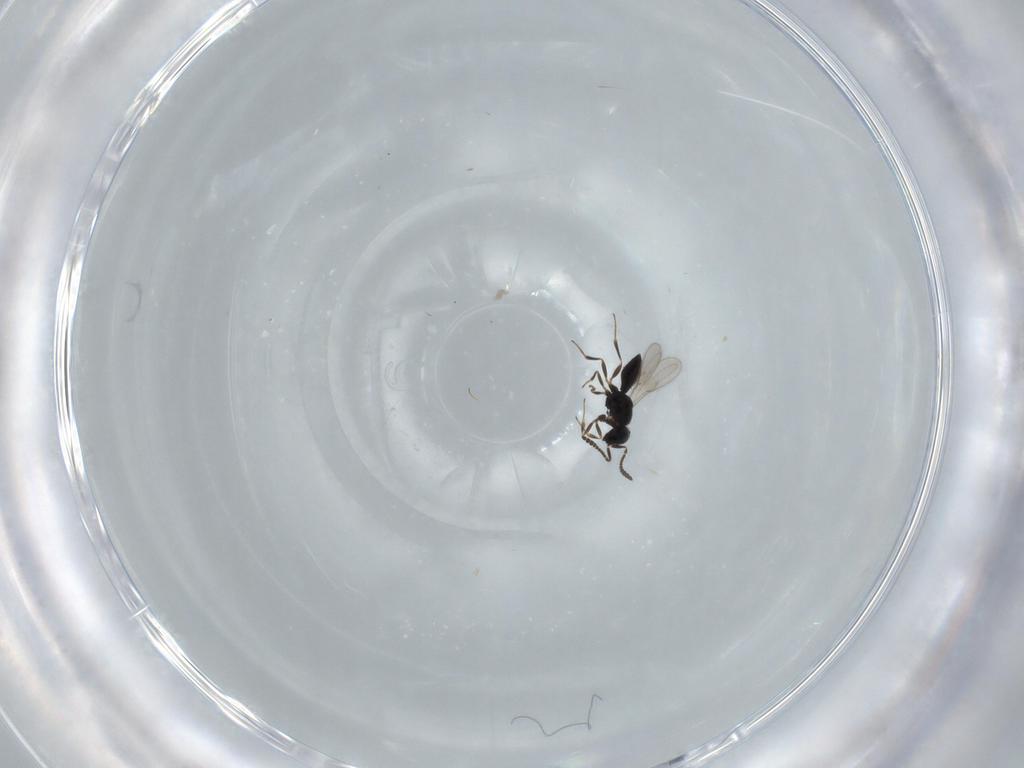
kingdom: Animalia
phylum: Arthropoda
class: Insecta
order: Hymenoptera
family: Scelionidae
